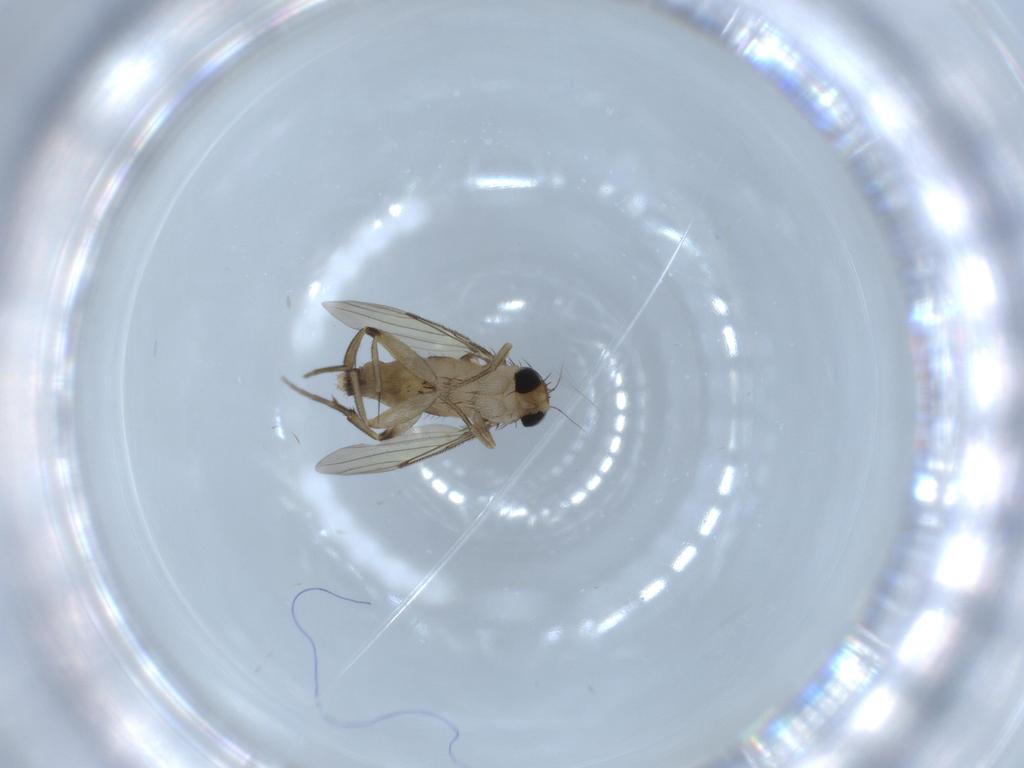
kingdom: Animalia
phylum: Arthropoda
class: Insecta
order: Diptera
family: Phoridae
